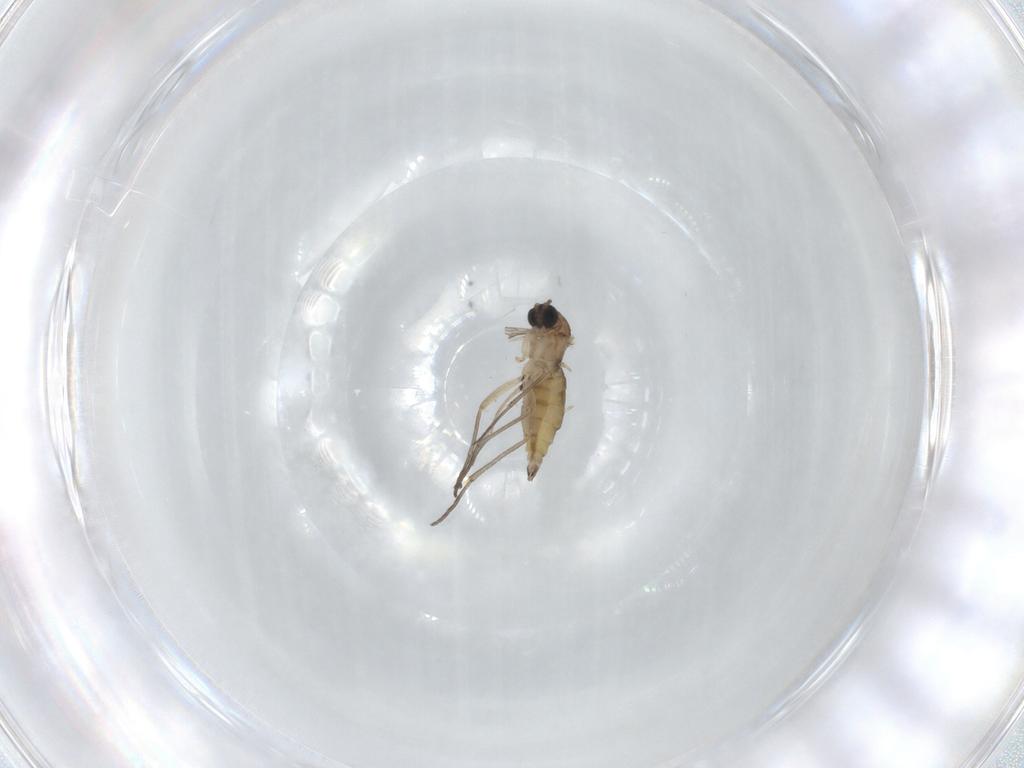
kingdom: Animalia
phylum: Arthropoda
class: Insecta
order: Diptera
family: Sciaridae
